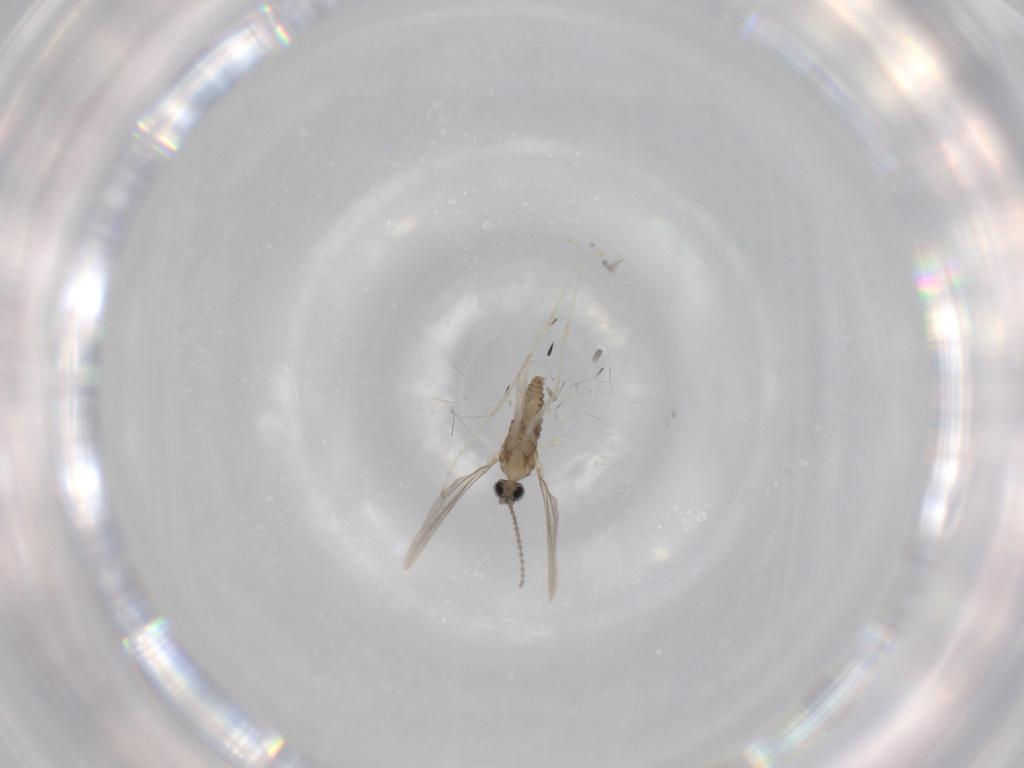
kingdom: Animalia
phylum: Arthropoda
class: Insecta
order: Diptera
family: Cecidomyiidae
